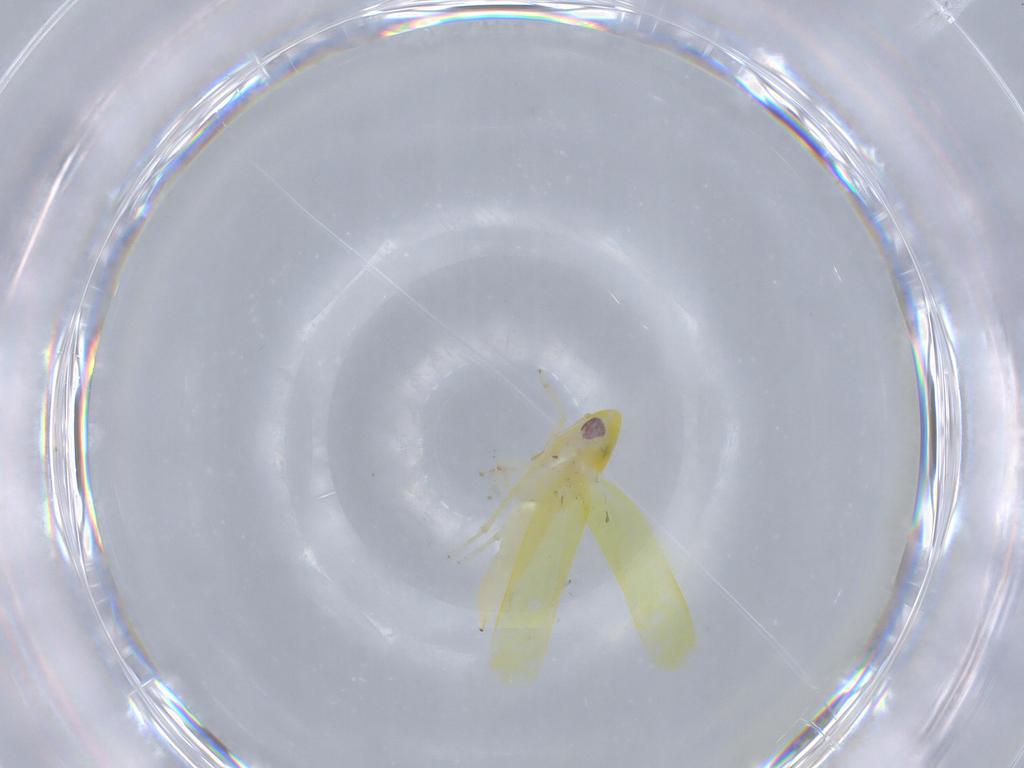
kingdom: Animalia
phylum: Arthropoda
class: Insecta
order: Hemiptera
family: Cicadellidae
